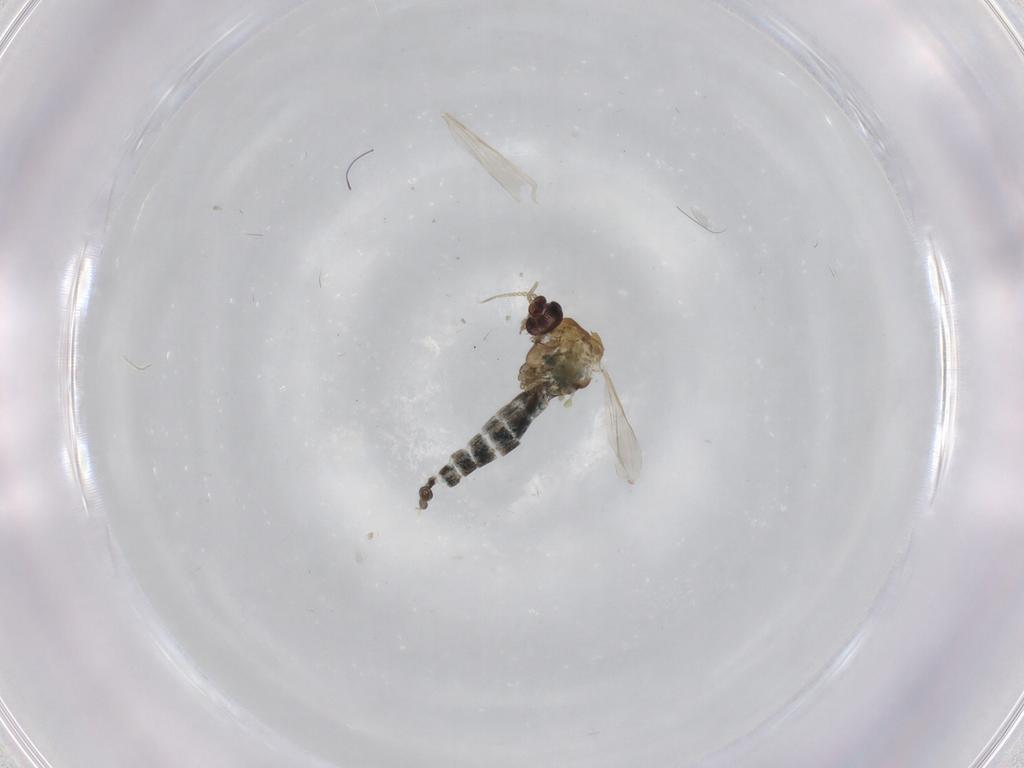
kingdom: Animalia
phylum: Arthropoda
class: Insecta
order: Diptera
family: Ceratopogonidae
